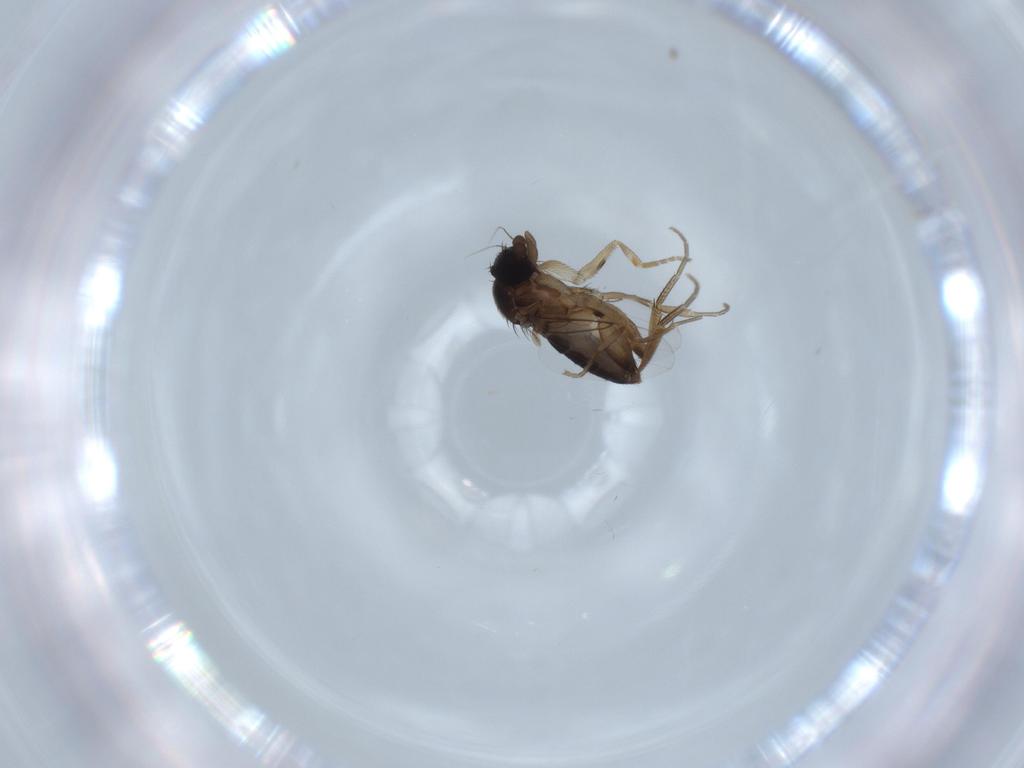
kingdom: Animalia
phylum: Arthropoda
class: Insecta
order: Diptera
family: Phoridae
